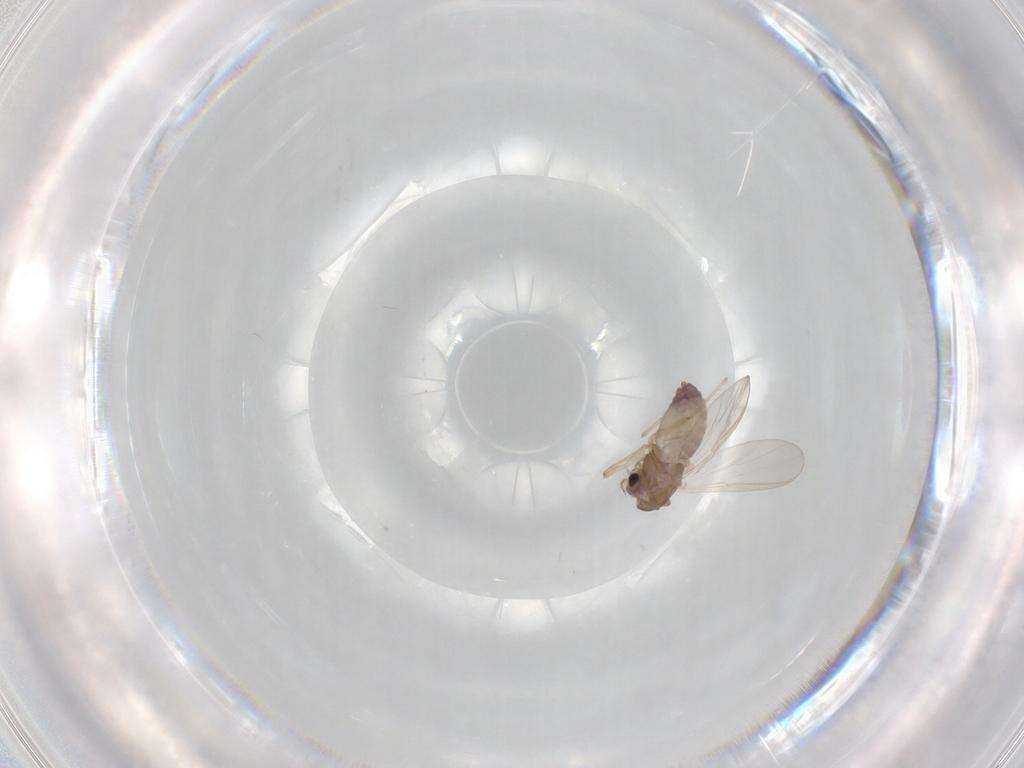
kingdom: Animalia
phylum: Arthropoda
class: Insecta
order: Diptera
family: Chironomidae
